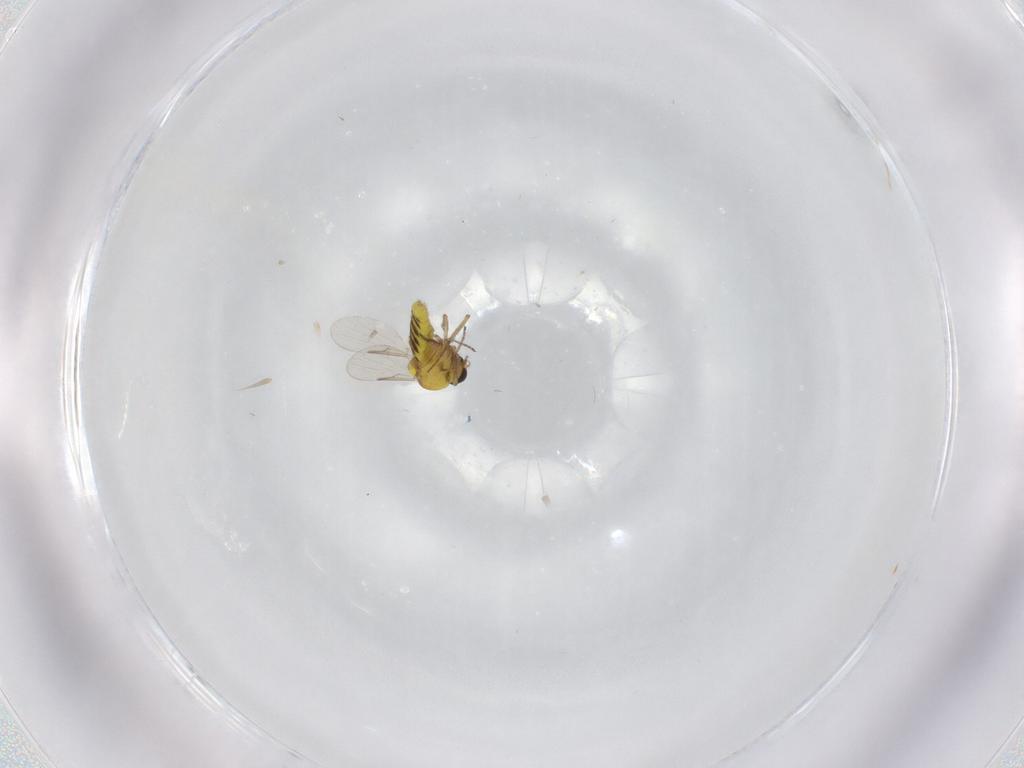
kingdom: Animalia
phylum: Arthropoda
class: Insecta
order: Diptera
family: Ceratopogonidae
